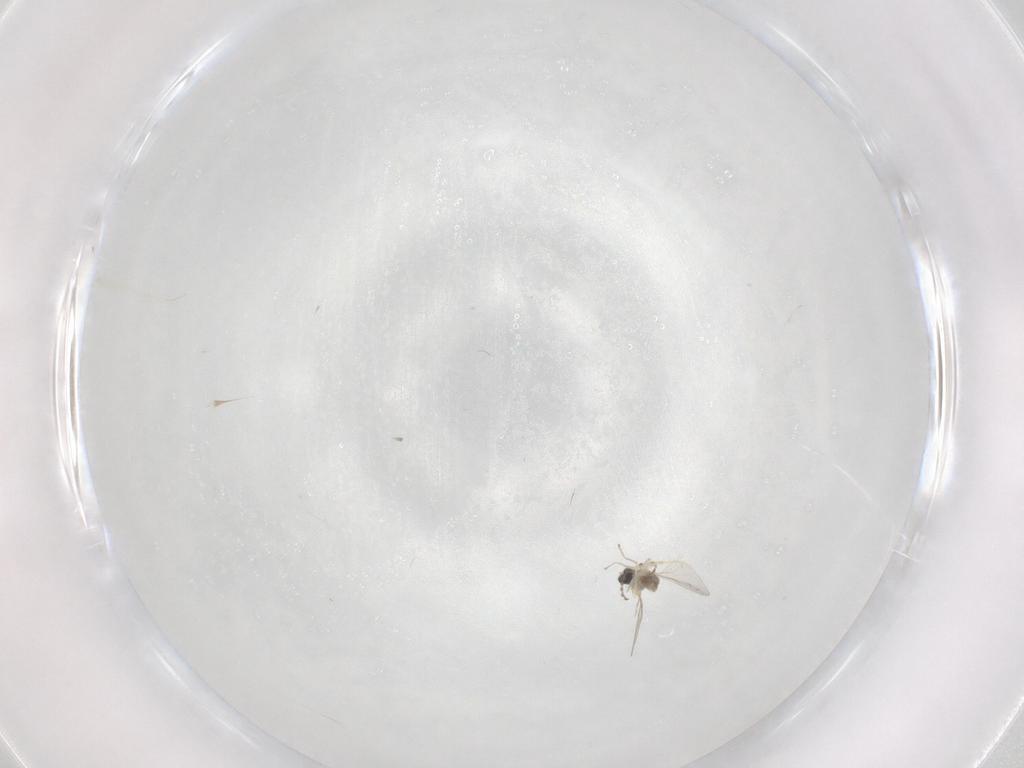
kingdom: Animalia
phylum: Arthropoda
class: Insecta
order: Diptera
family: Cecidomyiidae
